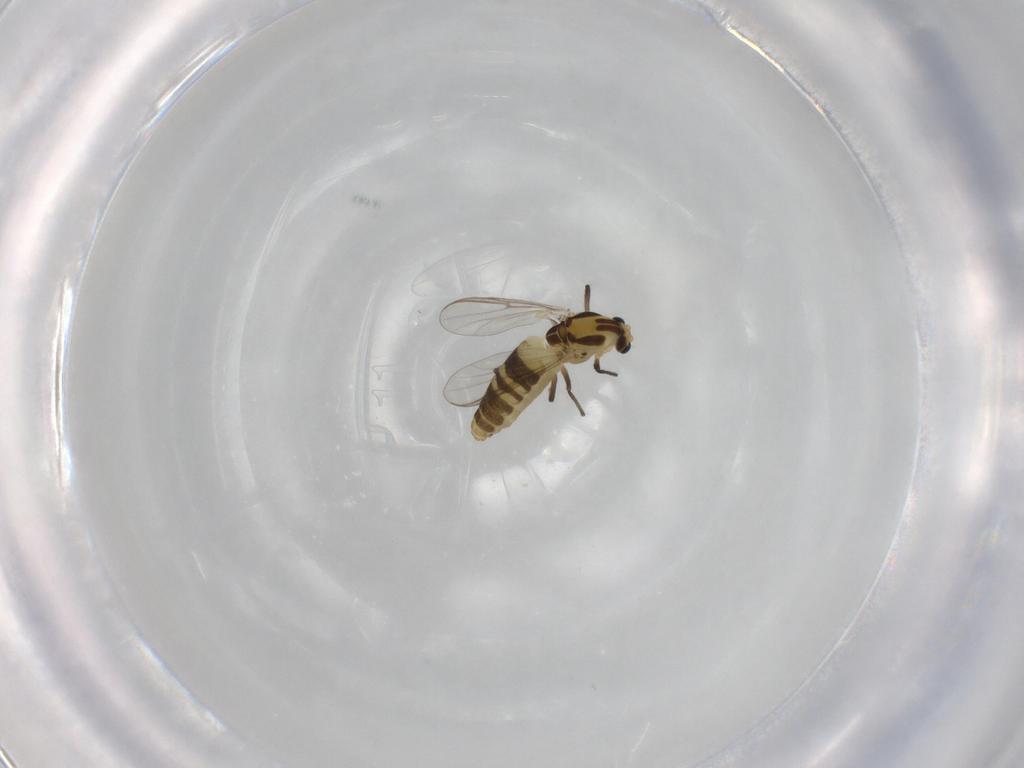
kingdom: Animalia
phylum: Arthropoda
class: Insecta
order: Diptera
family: Chironomidae
